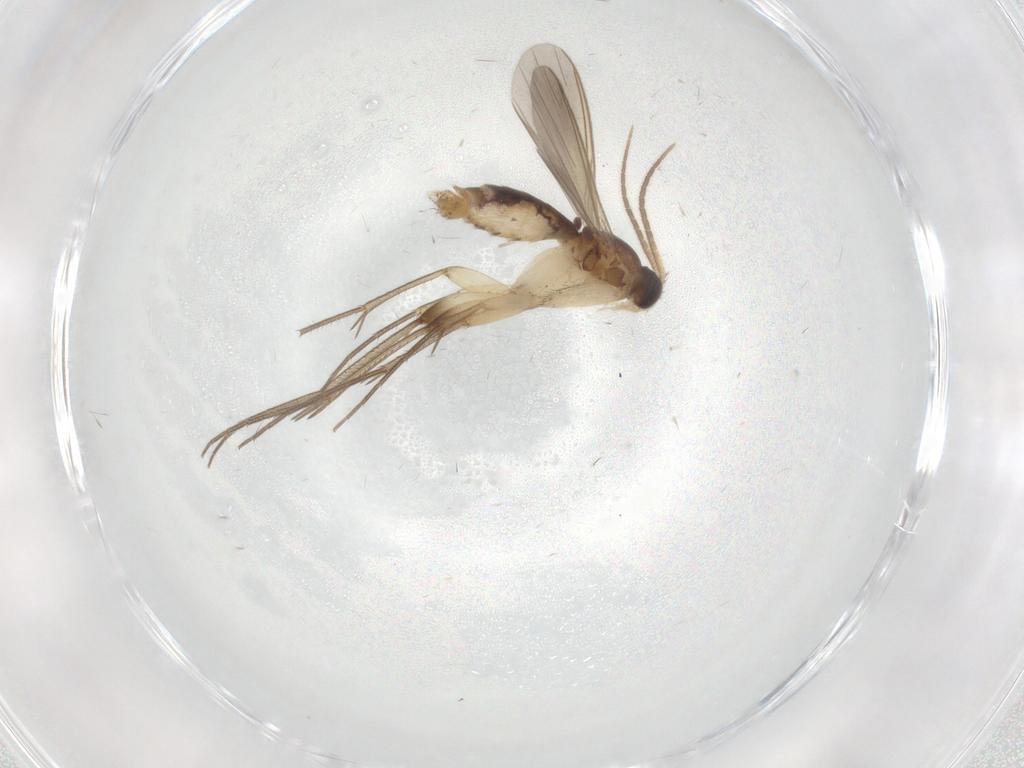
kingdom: Animalia
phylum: Arthropoda
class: Insecta
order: Diptera
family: Mycetophilidae
